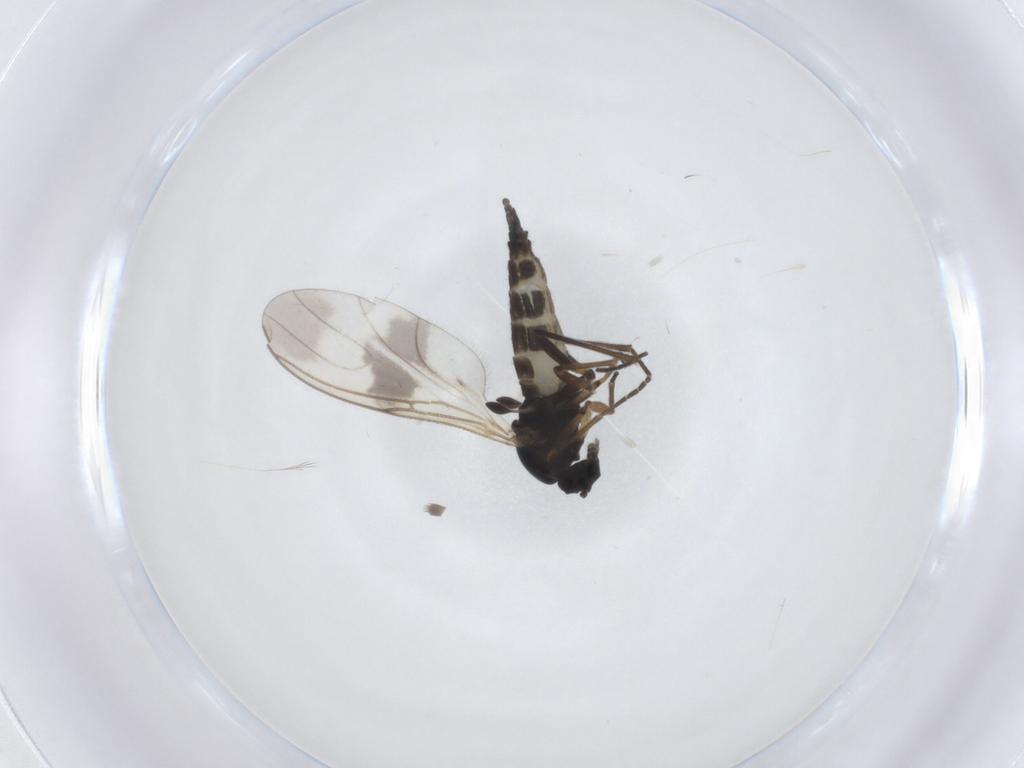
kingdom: Animalia
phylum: Arthropoda
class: Insecta
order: Diptera
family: Sciaridae
